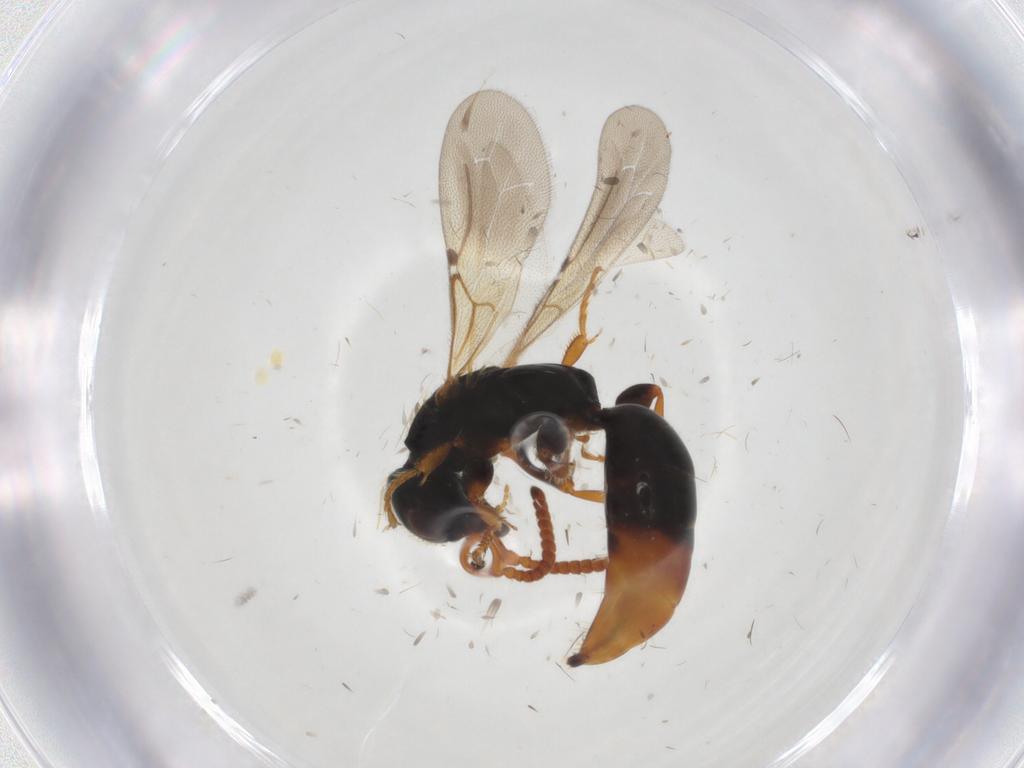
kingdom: Animalia
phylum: Arthropoda
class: Insecta
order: Hymenoptera
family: Bethylidae
